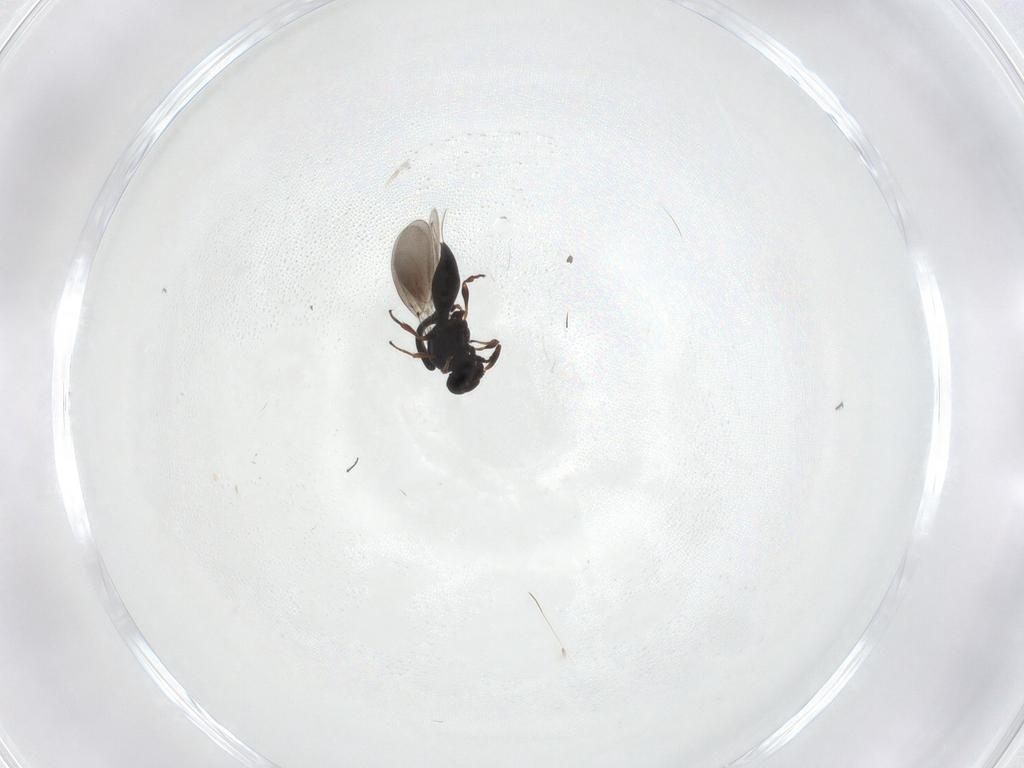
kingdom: Animalia
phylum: Arthropoda
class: Insecta
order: Hymenoptera
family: Platygastridae
